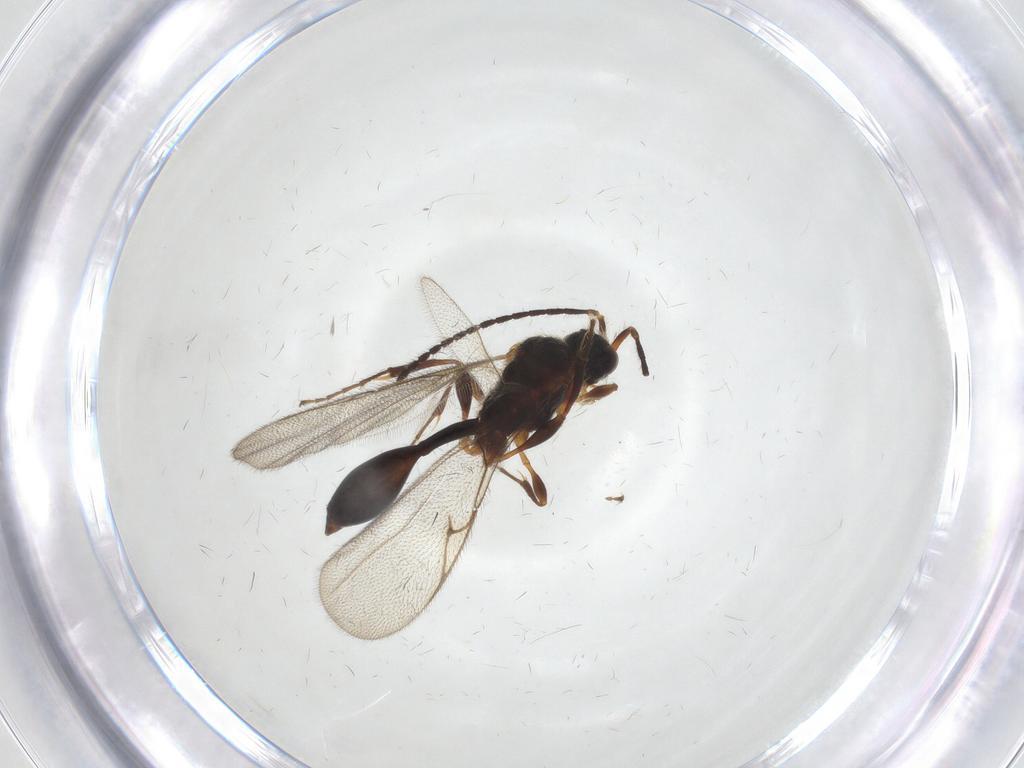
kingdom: Animalia
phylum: Arthropoda
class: Insecta
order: Hymenoptera
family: Diapriidae
